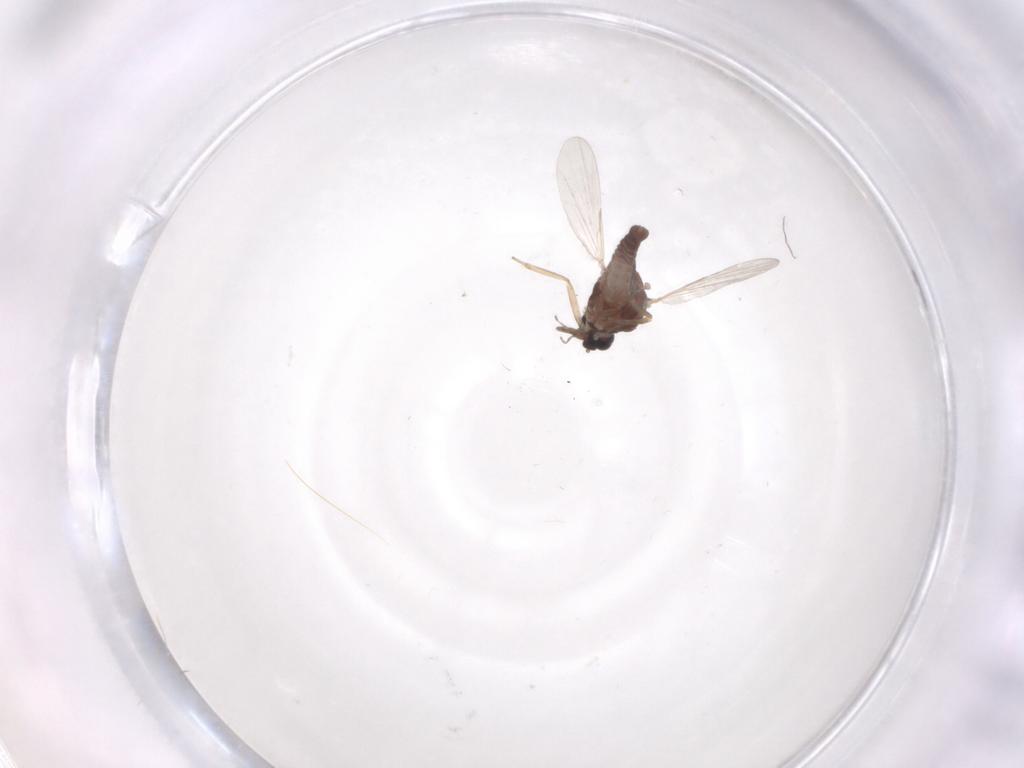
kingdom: Animalia
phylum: Arthropoda
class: Insecta
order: Diptera
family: Ceratopogonidae
